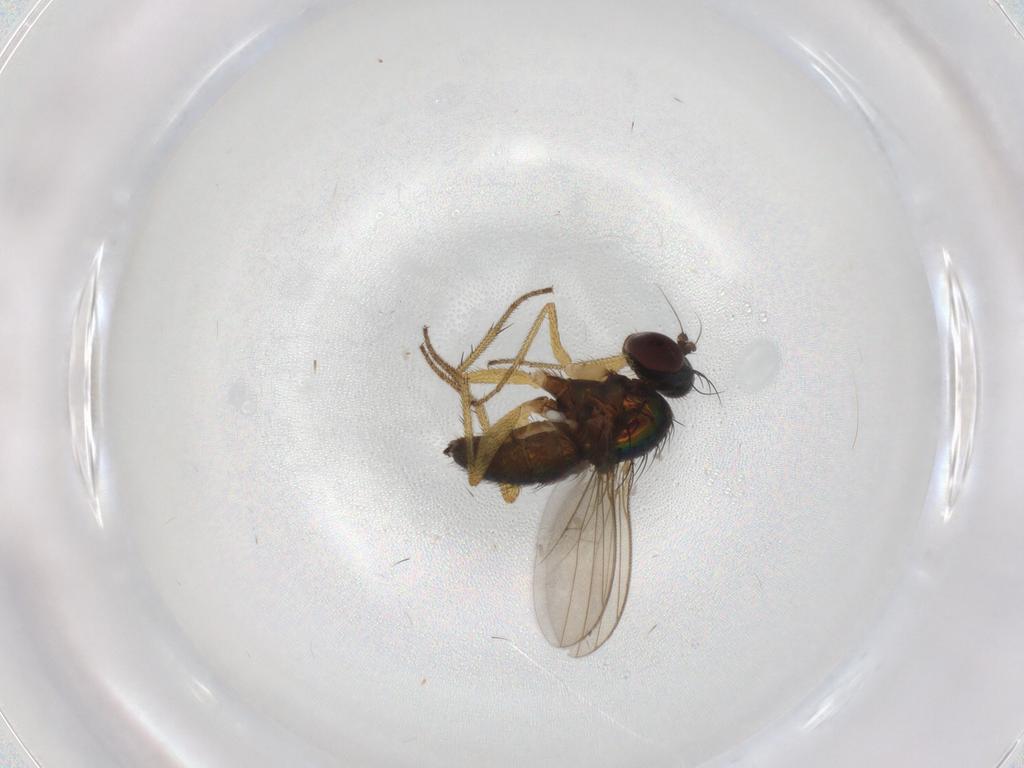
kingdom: Animalia
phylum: Arthropoda
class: Insecta
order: Diptera
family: Dolichopodidae
